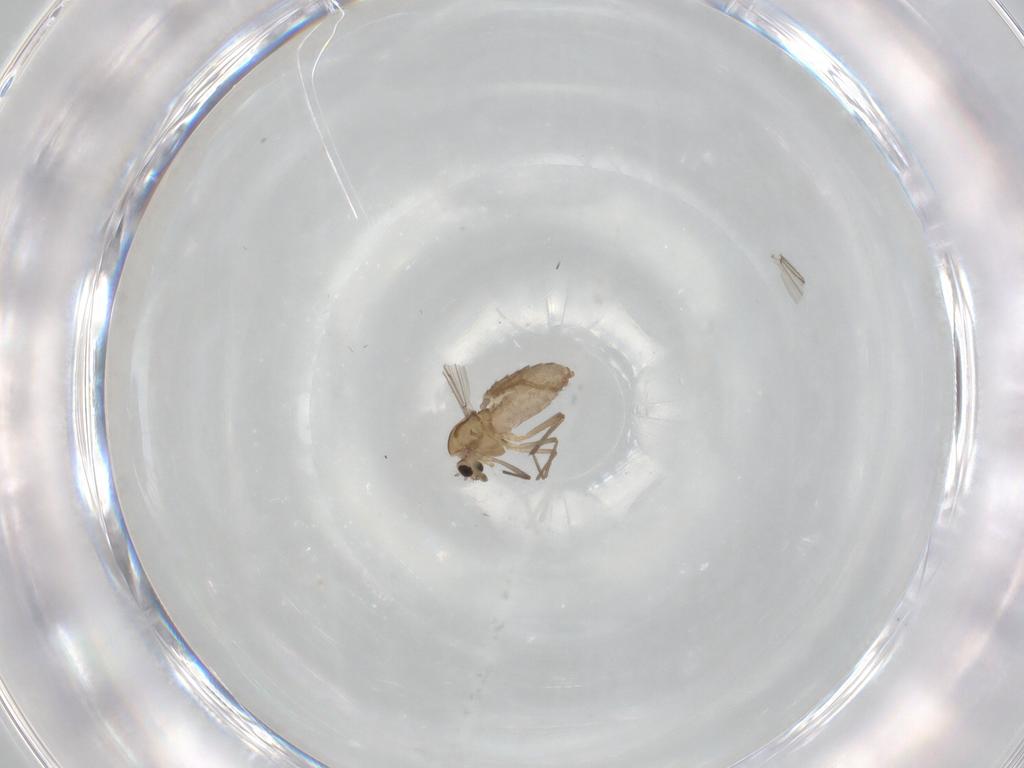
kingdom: Animalia
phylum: Arthropoda
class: Insecta
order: Diptera
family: Chironomidae
